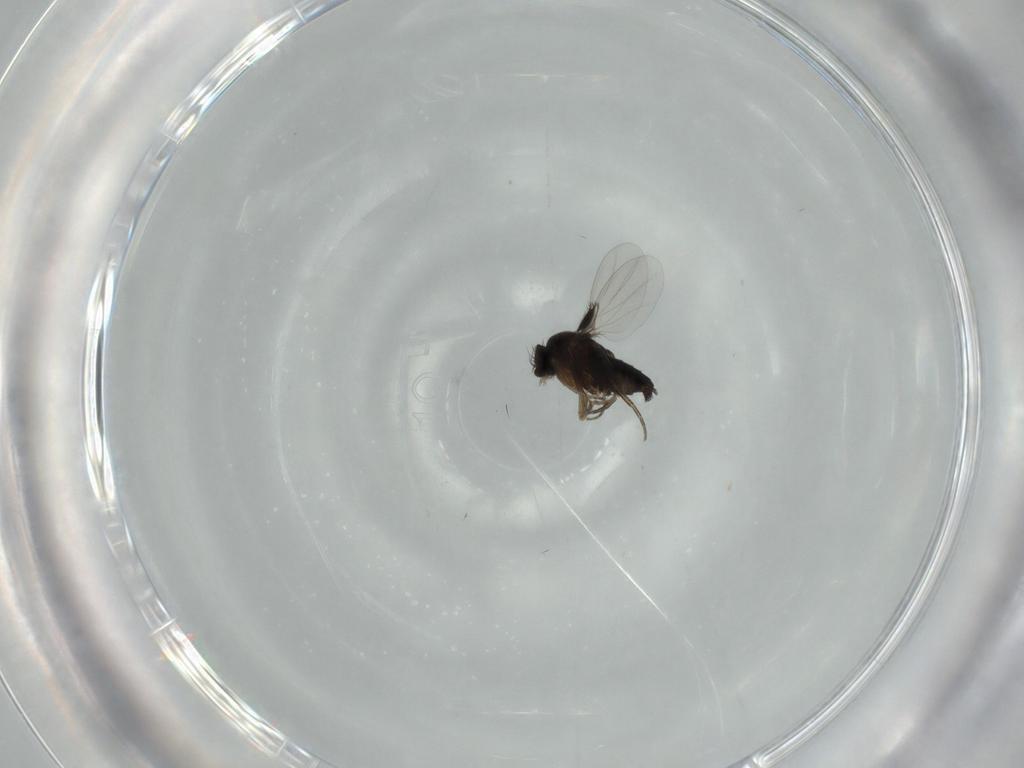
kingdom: Animalia
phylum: Arthropoda
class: Insecta
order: Diptera
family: Phoridae
